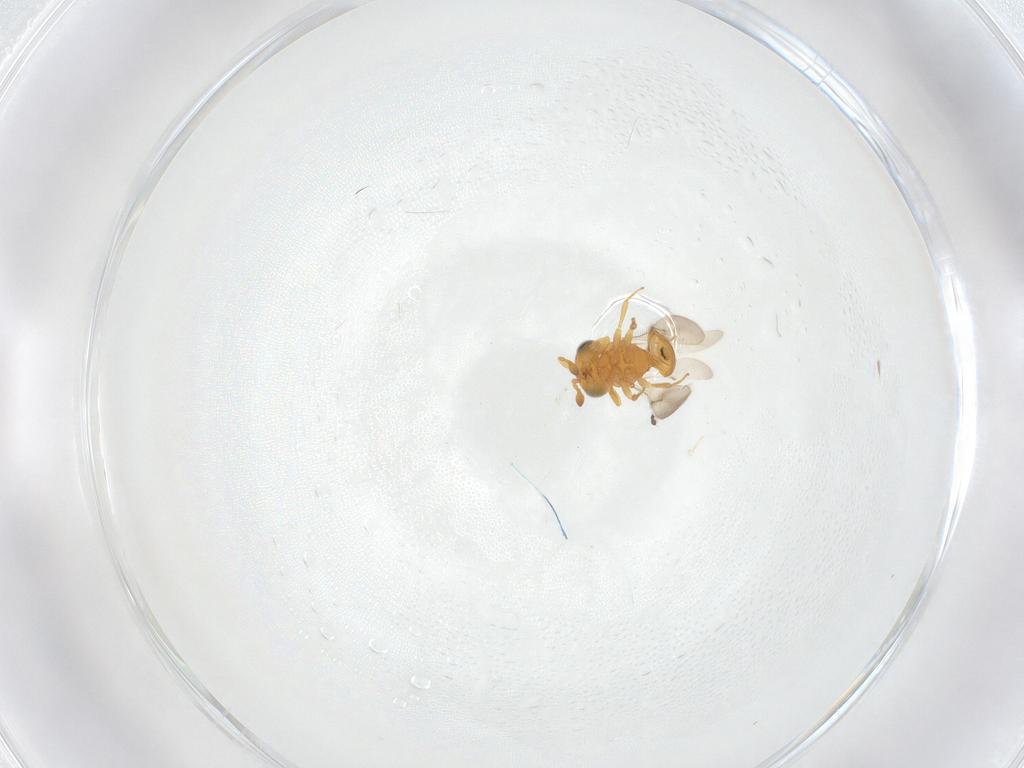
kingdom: Animalia
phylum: Arthropoda
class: Insecta
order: Hymenoptera
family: Scelionidae
